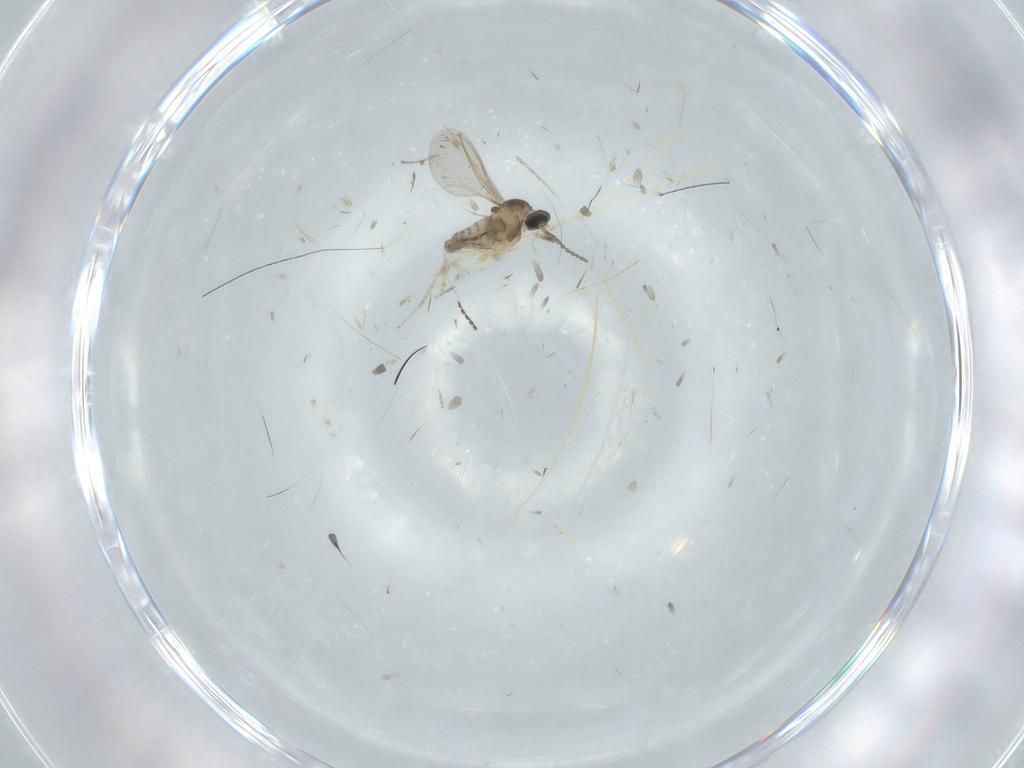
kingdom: Animalia
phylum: Arthropoda
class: Insecta
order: Diptera
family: Cecidomyiidae
